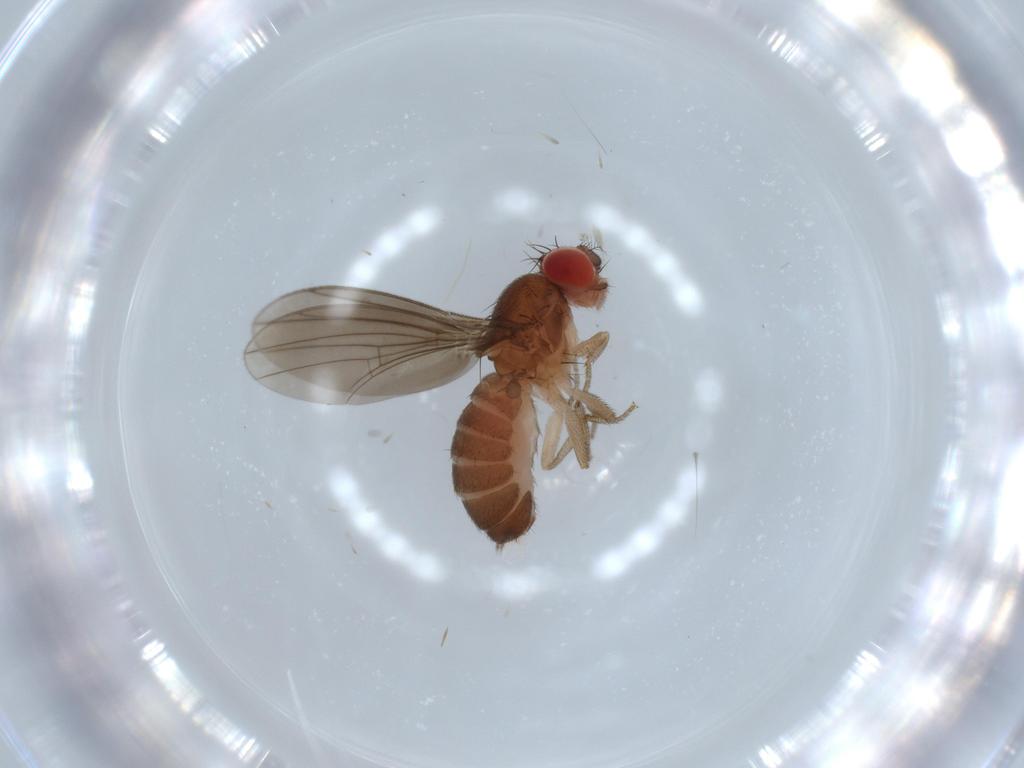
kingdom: Animalia
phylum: Arthropoda
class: Insecta
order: Diptera
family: Drosophilidae
